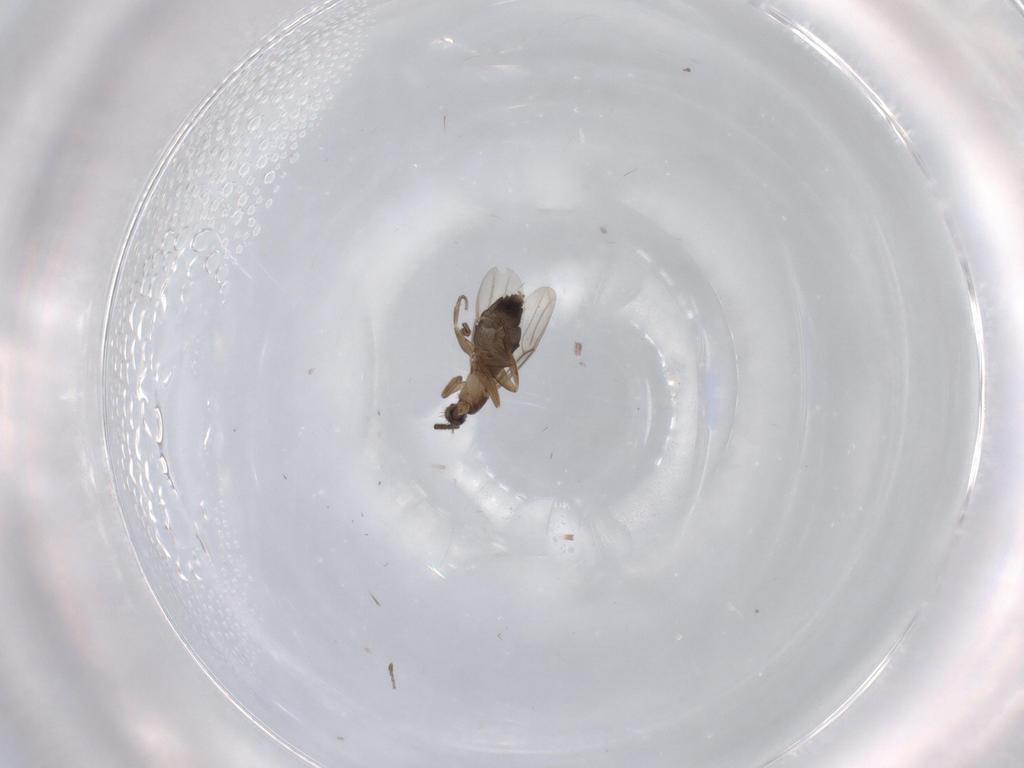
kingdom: Animalia
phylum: Arthropoda
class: Insecta
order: Diptera
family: Phoridae
